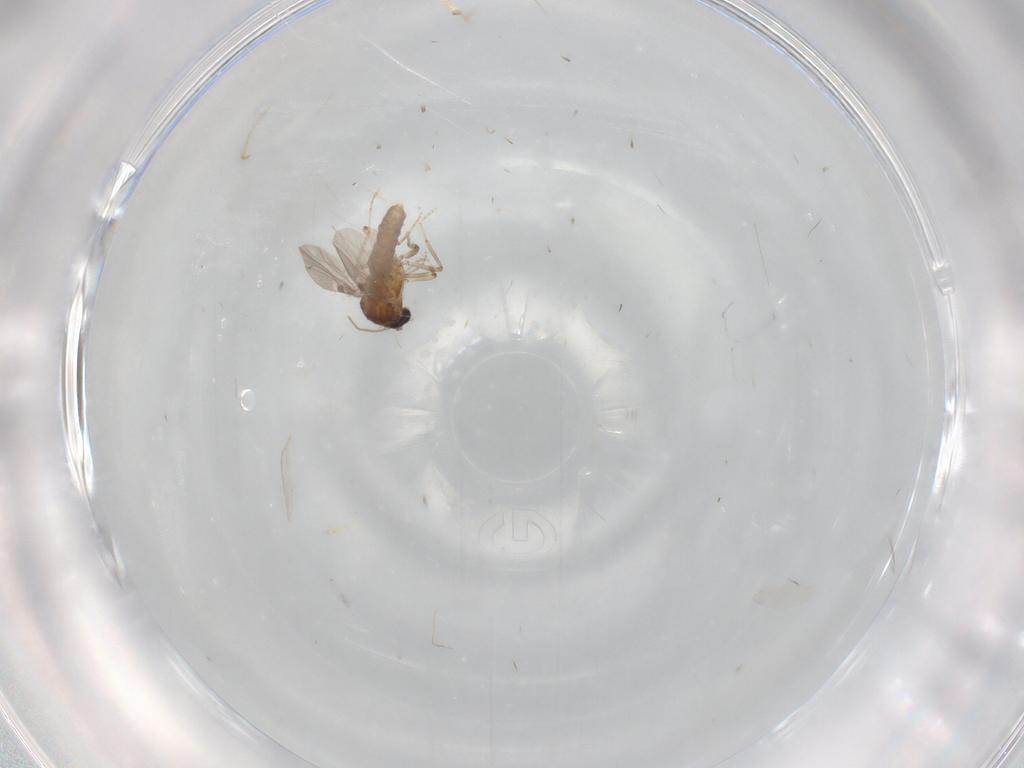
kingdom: Animalia
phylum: Arthropoda
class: Insecta
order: Diptera
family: Ceratopogonidae
